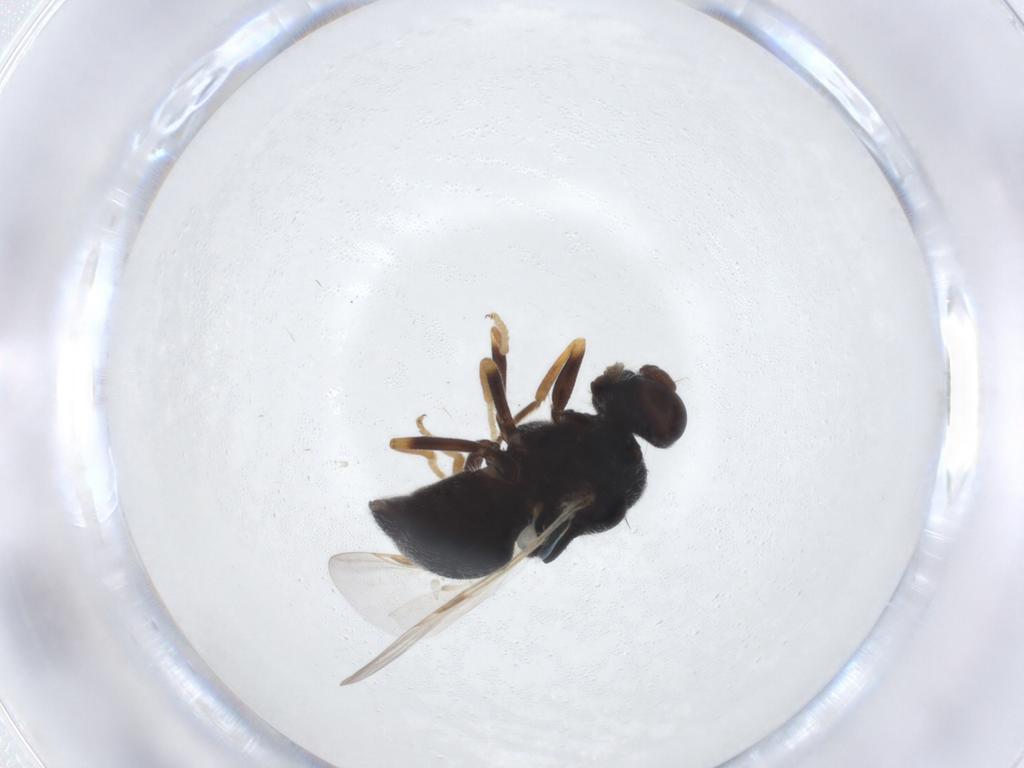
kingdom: Animalia
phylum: Arthropoda
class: Insecta
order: Diptera
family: Stratiomyidae
